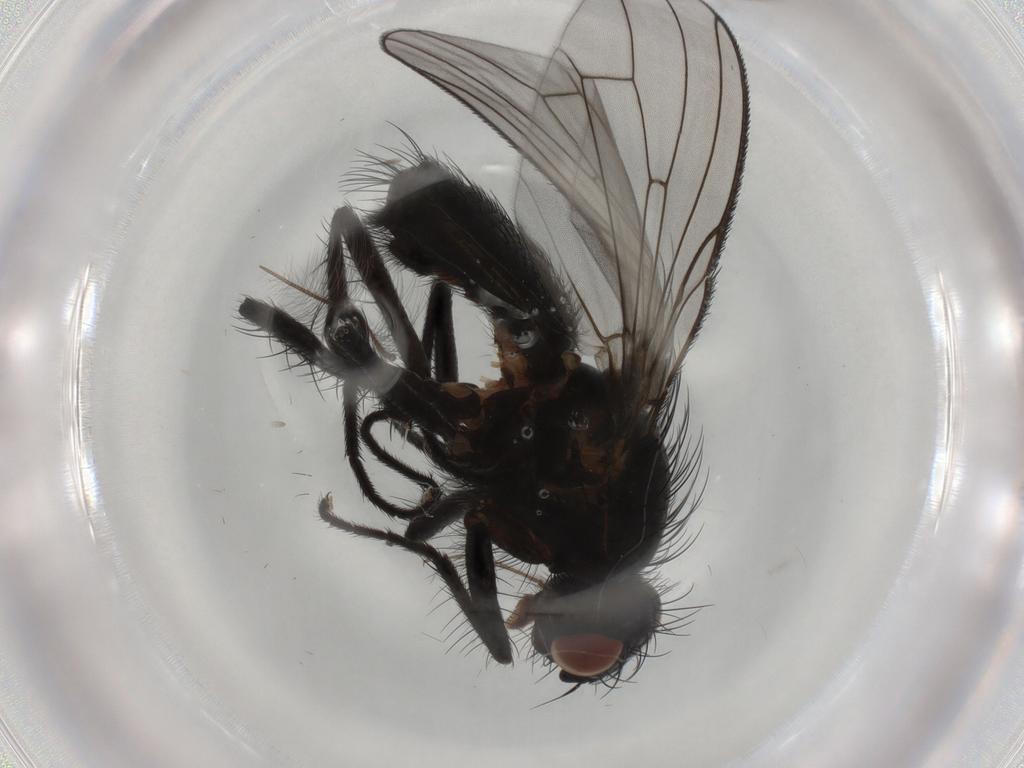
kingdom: Animalia
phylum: Arthropoda
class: Insecta
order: Diptera
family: Anthomyiidae
